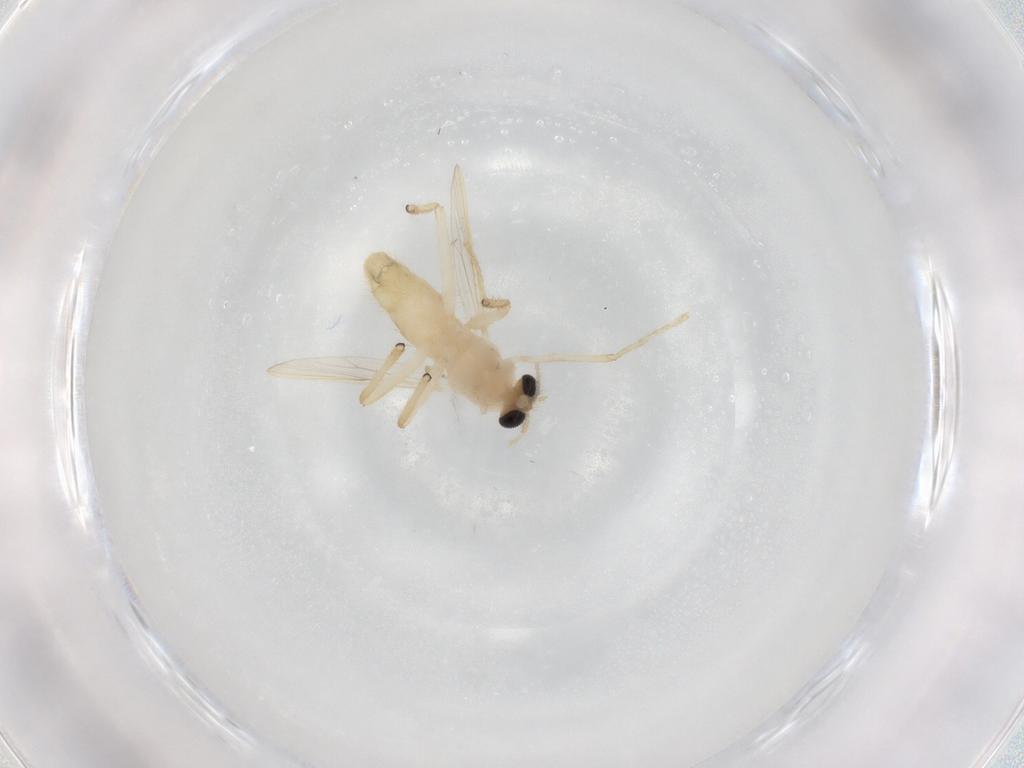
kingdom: Animalia
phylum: Arthropoda
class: Insecta
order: Diptera
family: Chironomidae
